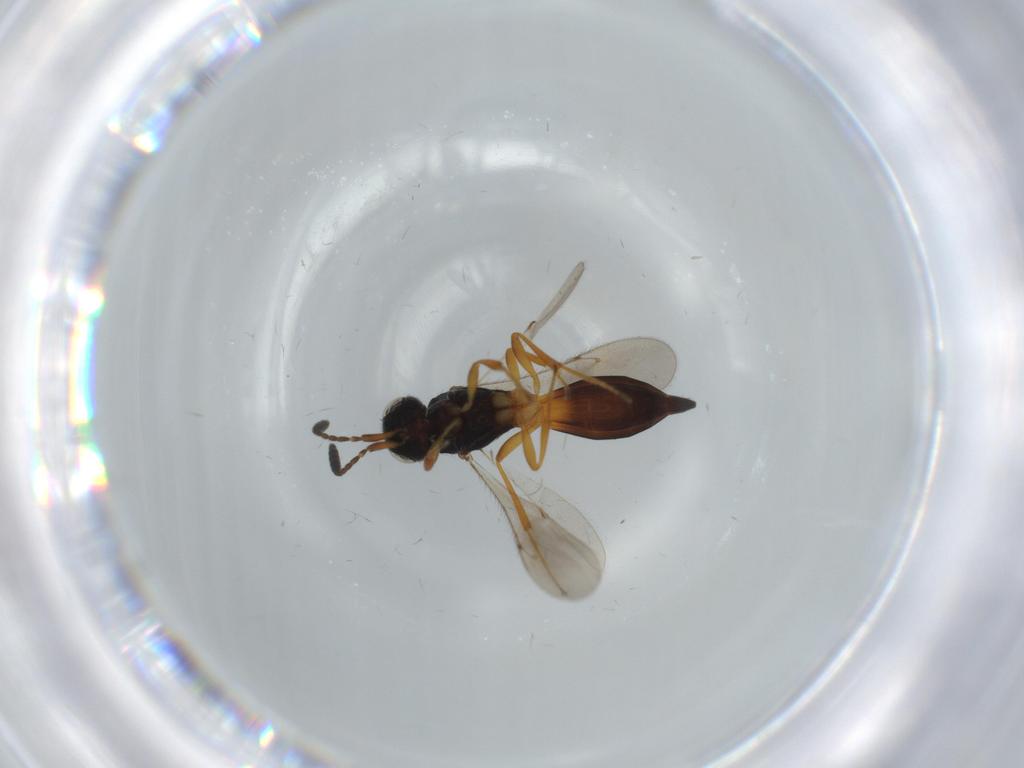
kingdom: Animalia
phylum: Arthropoda
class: Insecta
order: Hymenoptera
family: Scelionidae
